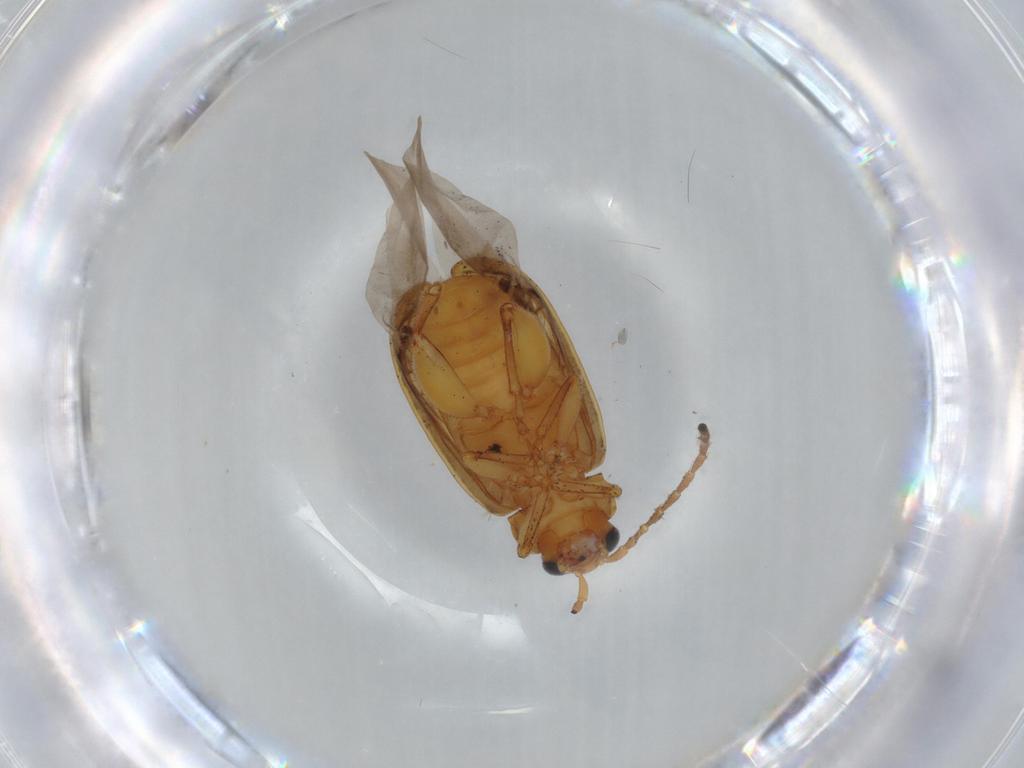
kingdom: Animalia
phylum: Arthropoda
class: Insecta
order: Coleoptera
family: Chrysomelidae
